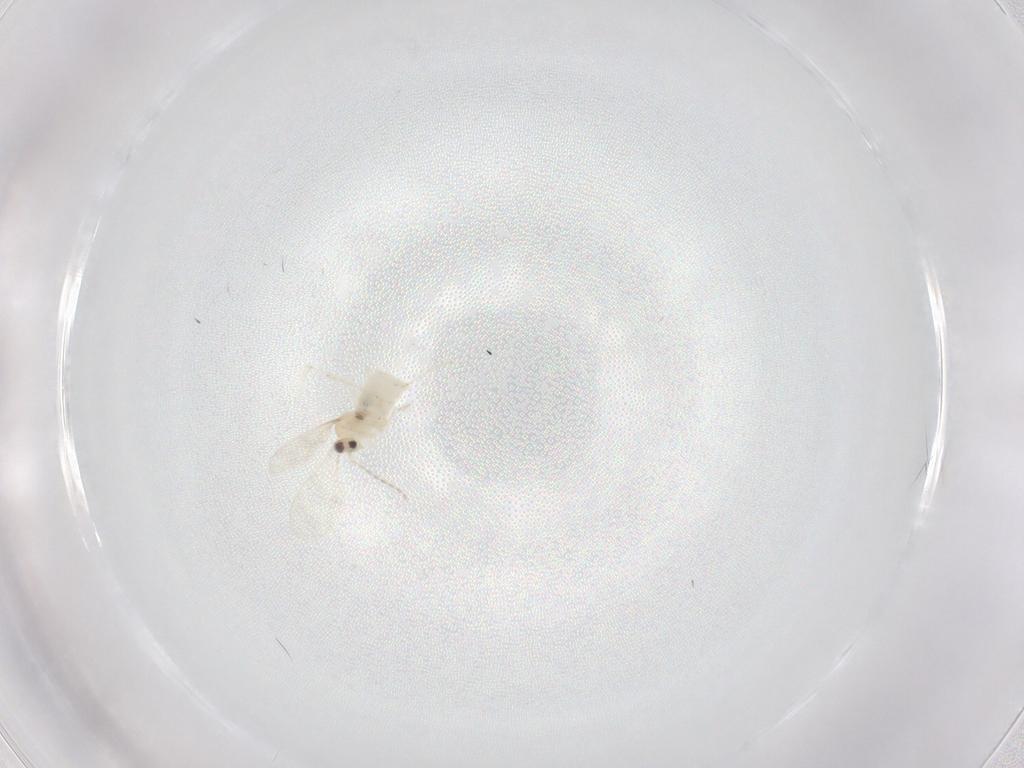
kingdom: Animalia
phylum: Arthropoda
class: Insecta
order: Diptera
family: Cecidomyiidae
